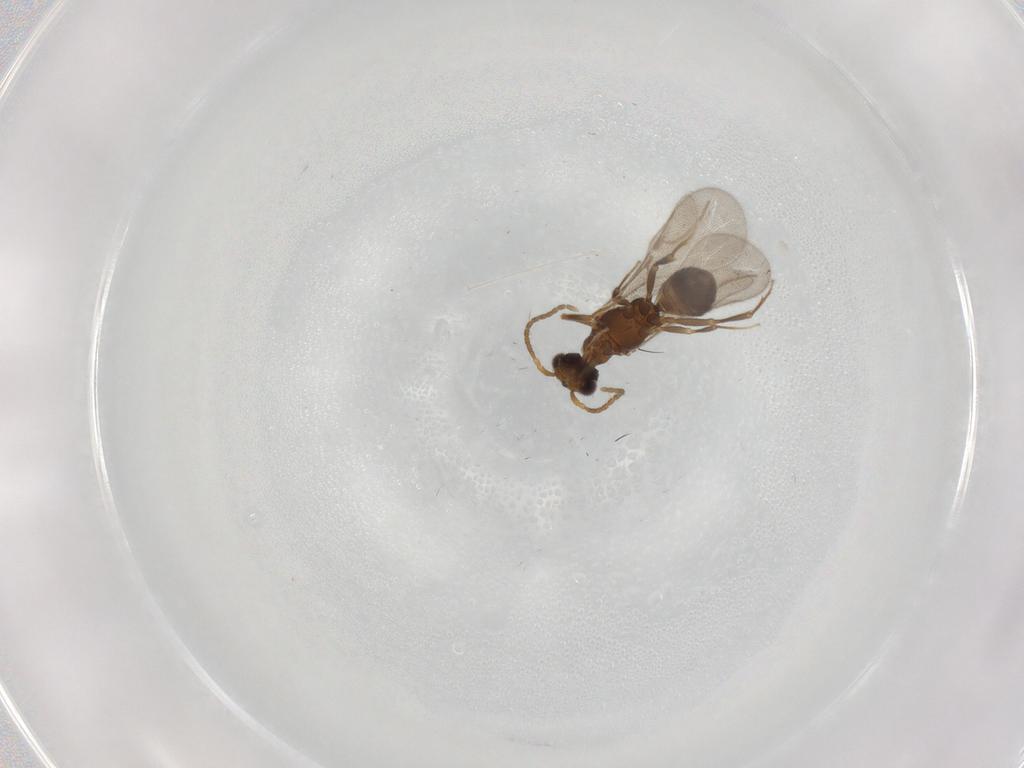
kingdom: Animalia
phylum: Arthropoda
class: Insecta
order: Hymenoptera
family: Bethylidae
